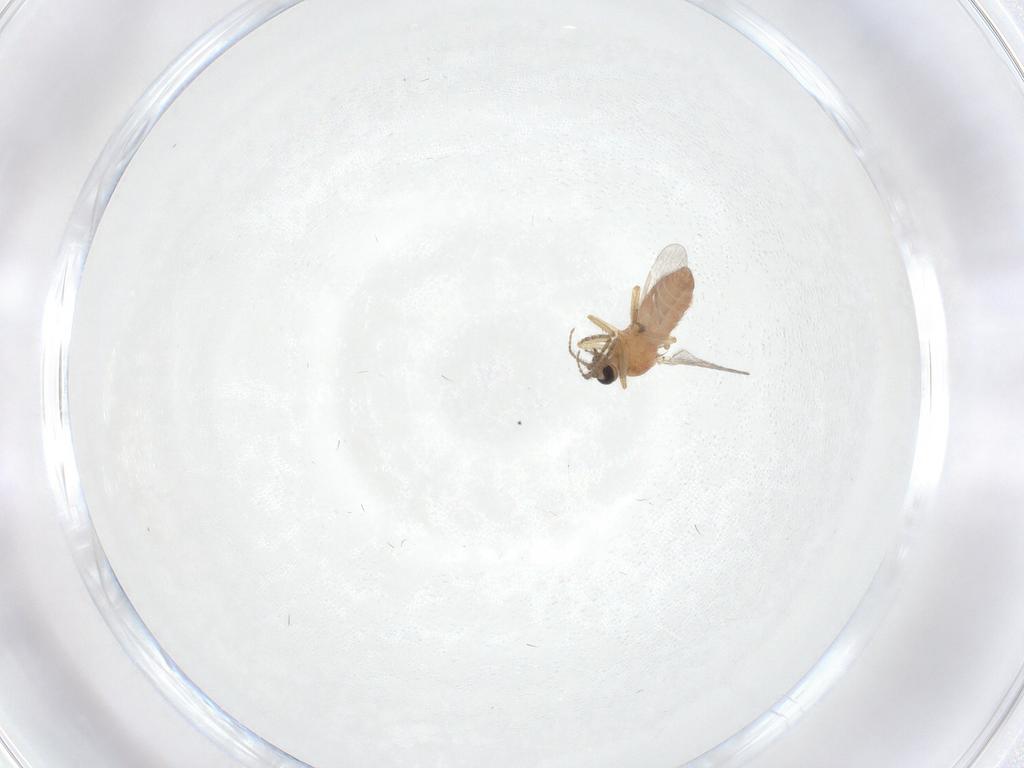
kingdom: Animalia
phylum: Arthropoda
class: Insecta
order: Diptera
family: Ceratopogonidae
